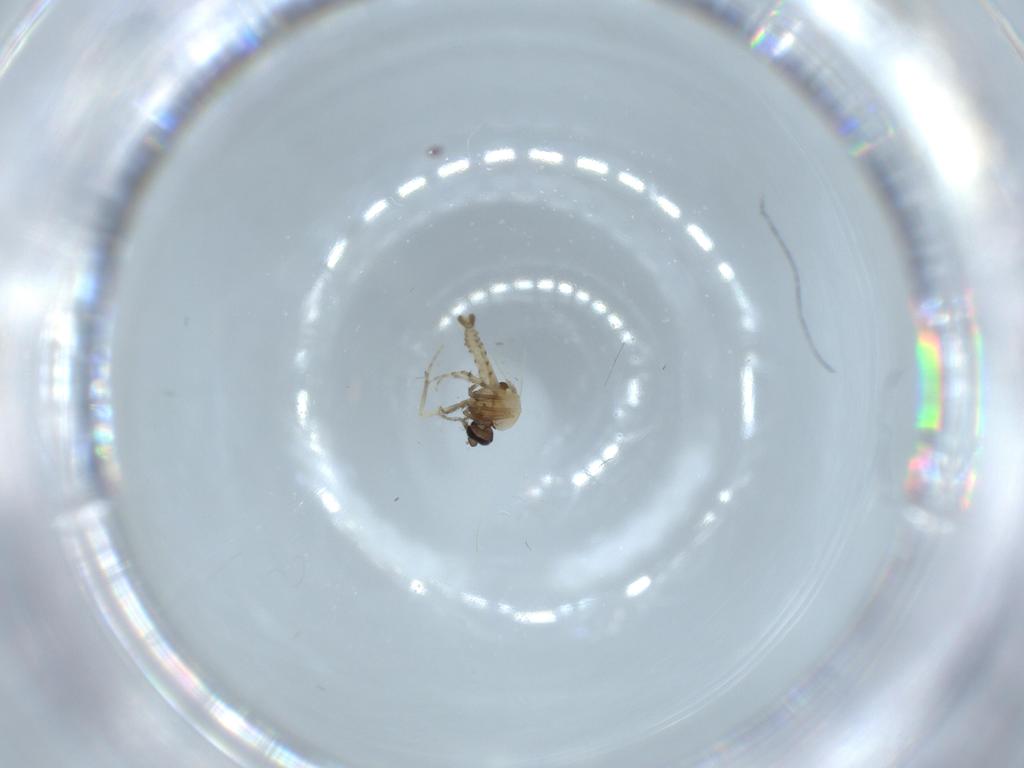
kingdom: Animalia
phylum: Arthropoda
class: Insecta
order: Diptera
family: Ceratopogonidae
